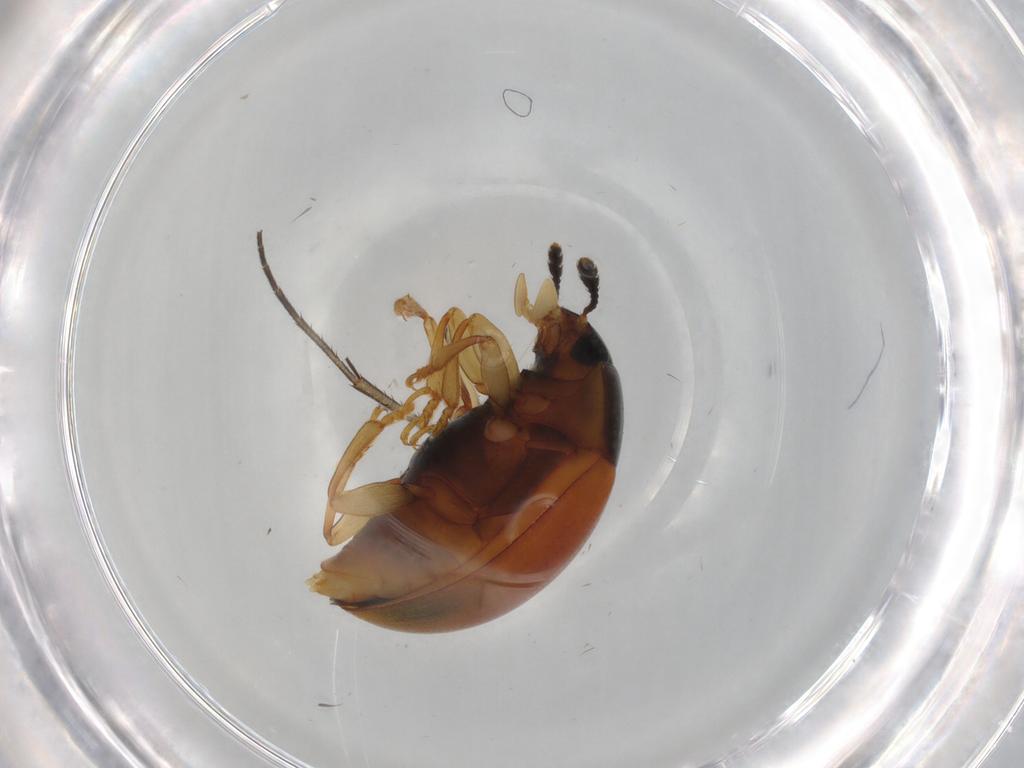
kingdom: Animalia
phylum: Arthropoda
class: Insecta
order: Coleoptera
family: Erotylidae
